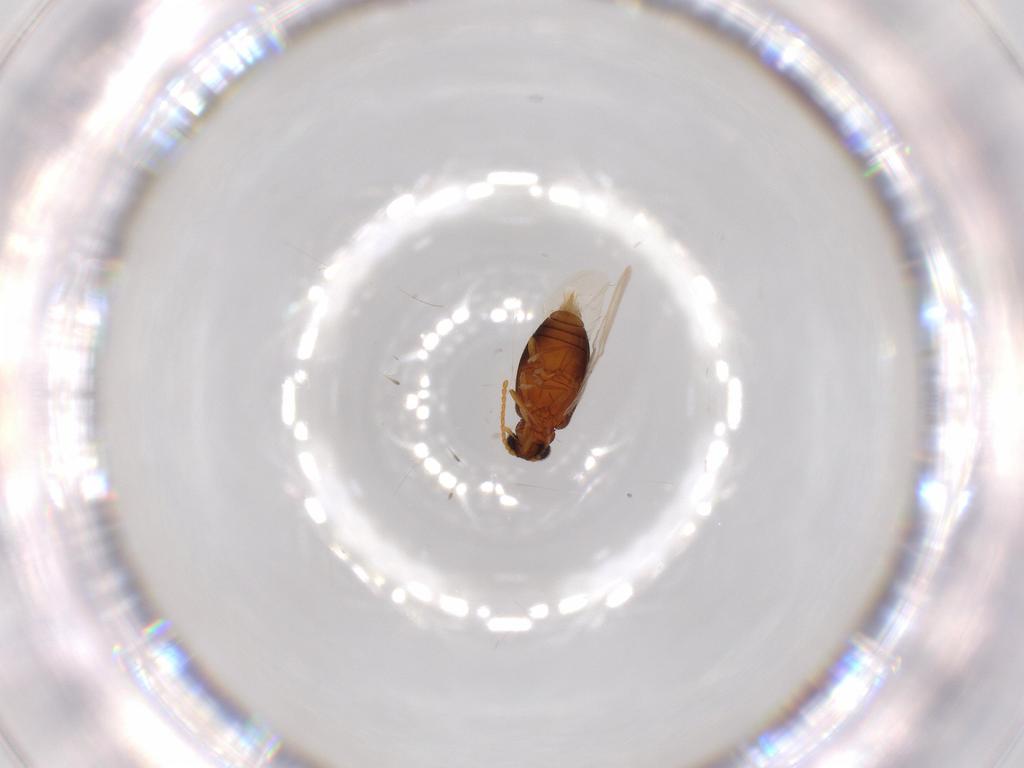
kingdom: Animalia
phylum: Arthropoda
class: Insecta
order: Coleoptera
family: Aderidae
